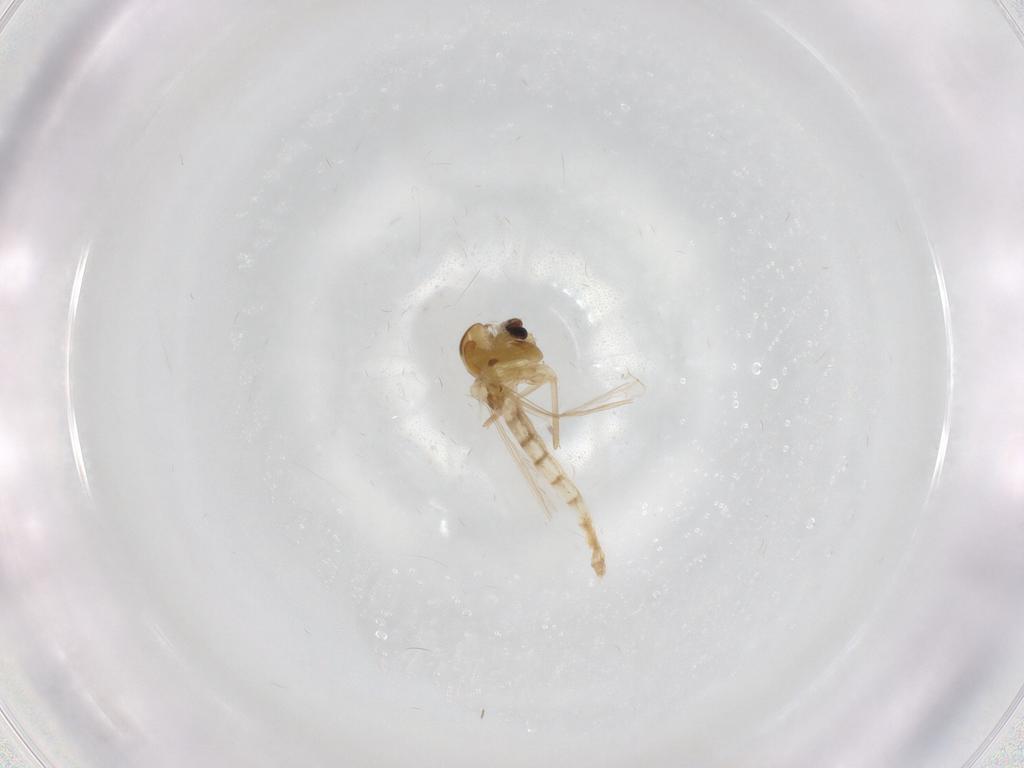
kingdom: Animalia
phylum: Arthropoda
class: Insecta
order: Diptera
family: Chironomidae
